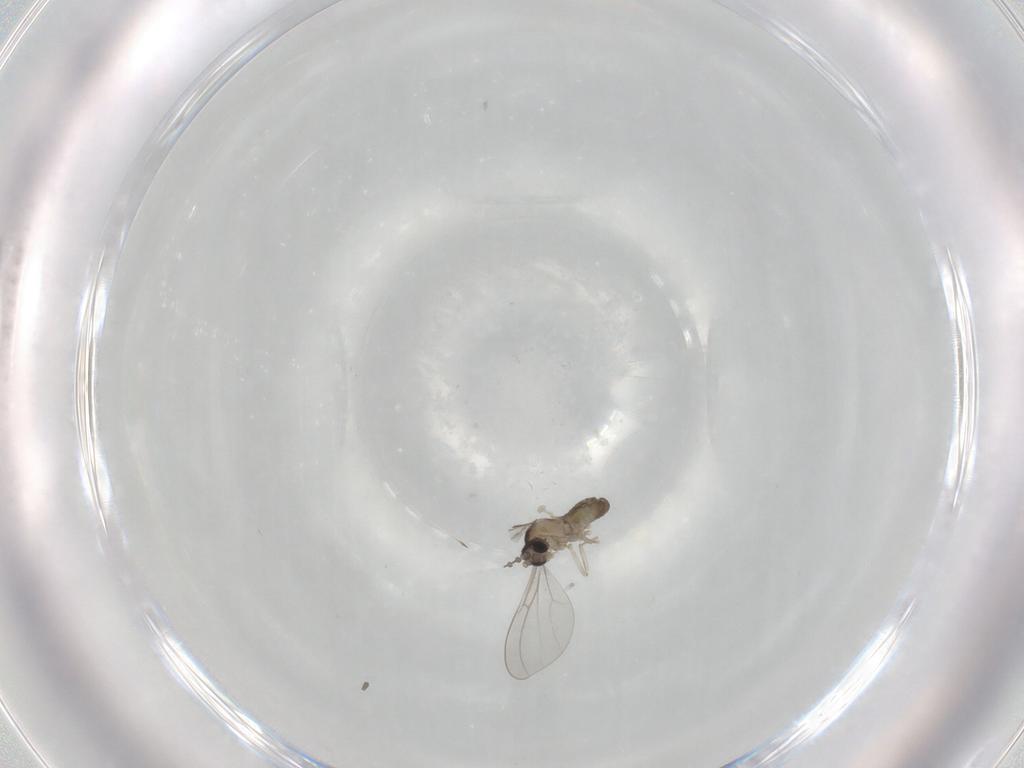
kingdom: Animalia
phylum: Arthropoda
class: Insecta
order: Diptera
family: Cecidomyiidae
